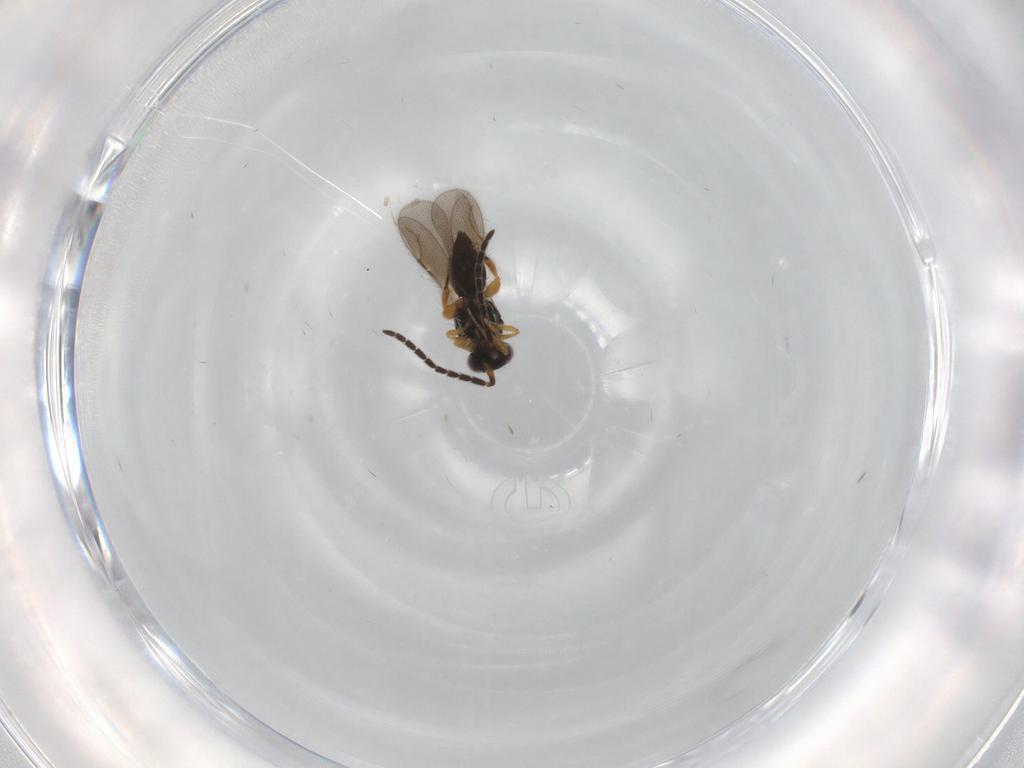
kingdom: Animalia
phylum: Arthropoda
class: Insecta
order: Hymenoptera
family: Ceraphronidae
